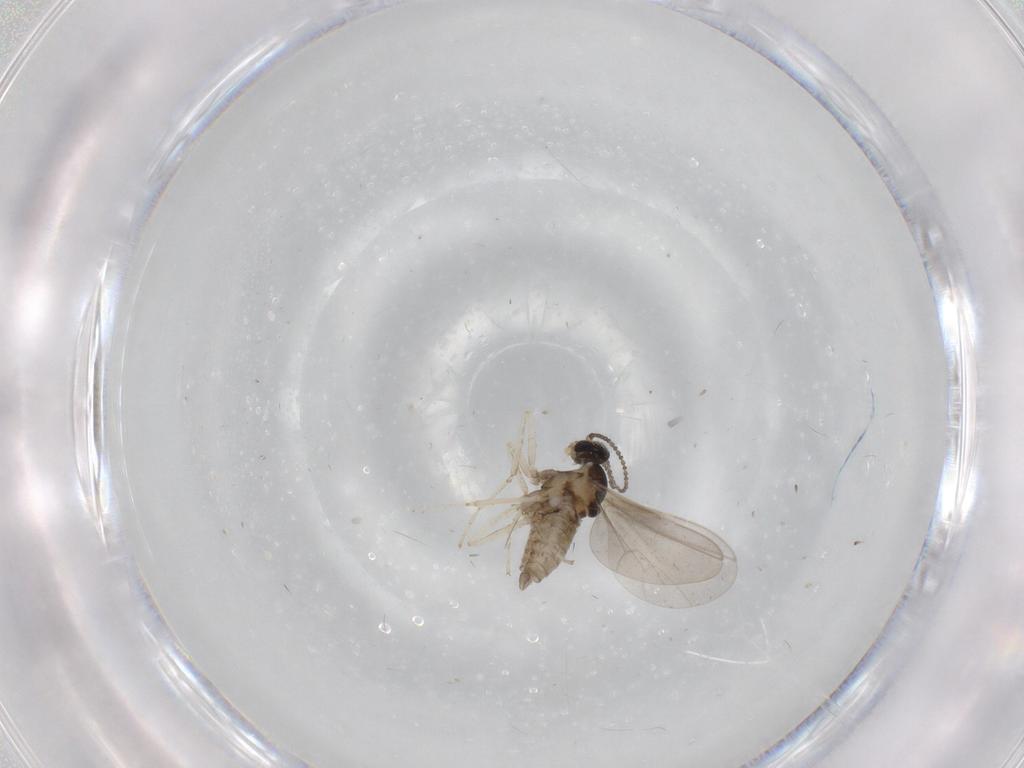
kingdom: Animalia
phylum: Arthropoda
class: Insecta
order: Diptera
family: Cecidomyiidae
